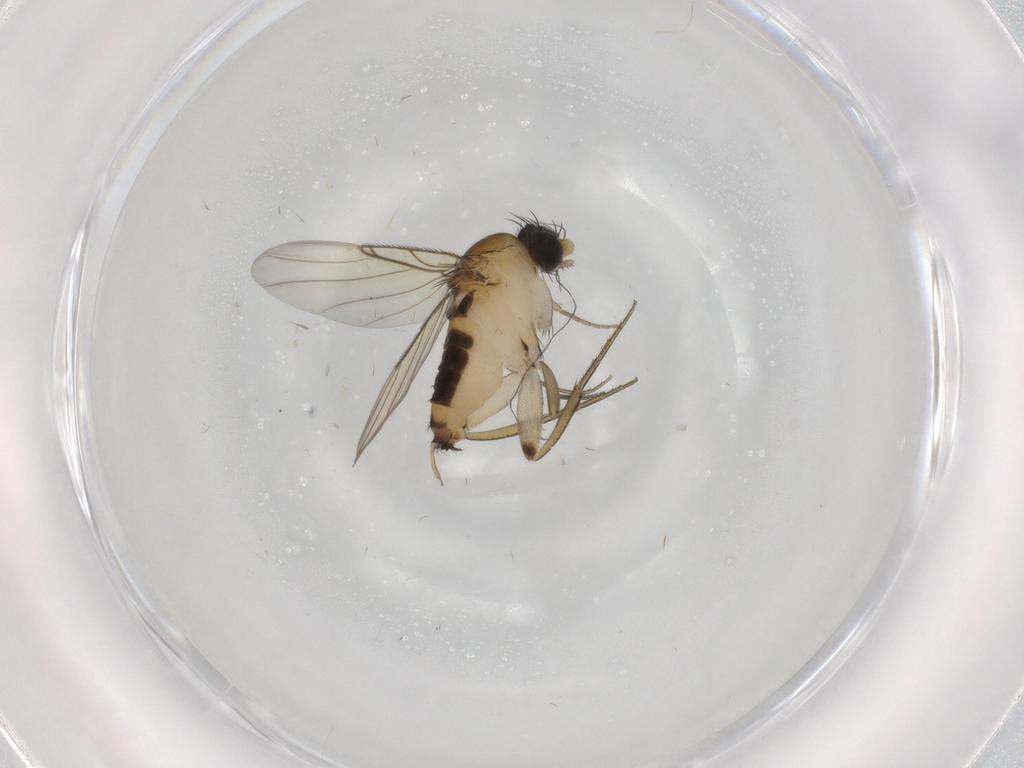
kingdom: Animalia
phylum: Arthropoda
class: Insecta
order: Diptera
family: Phoridae
